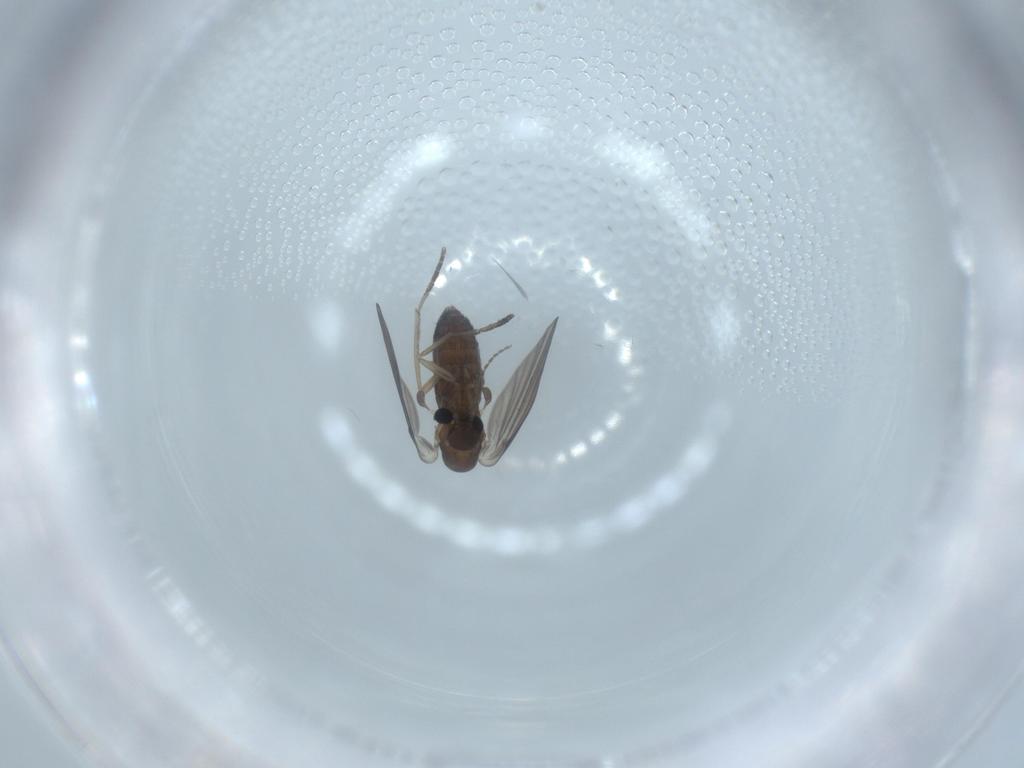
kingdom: Animalia
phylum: Arthropoda
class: Insecta
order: Diptera
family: Psychodidae
